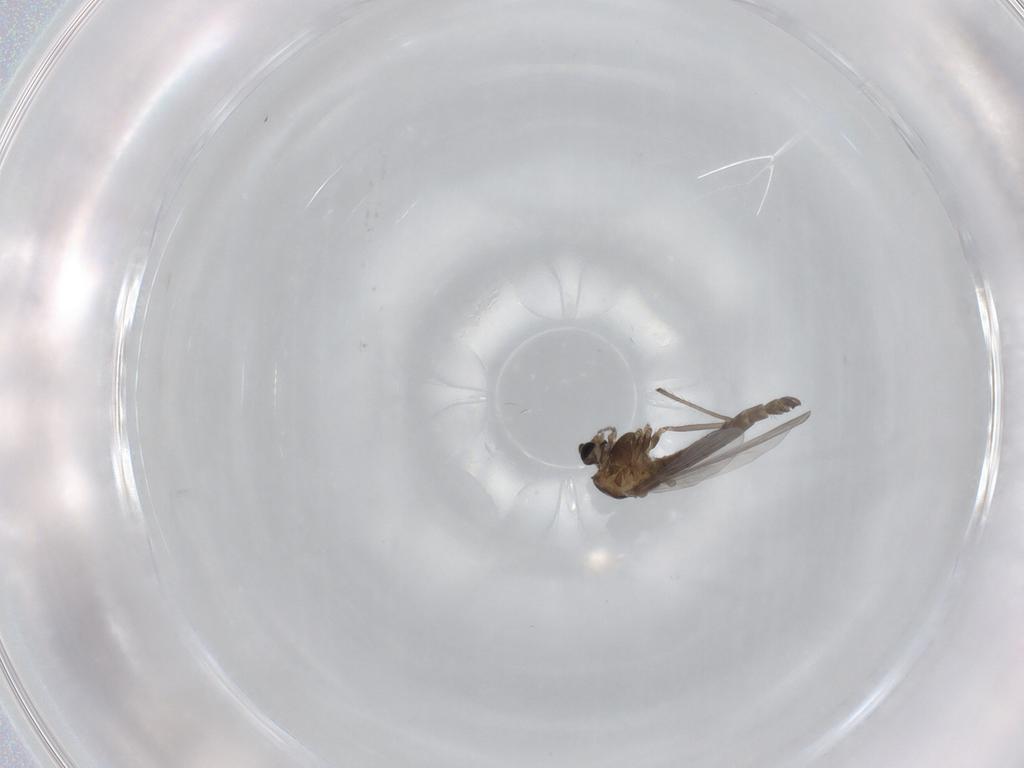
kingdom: Animalia
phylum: Arthropoda
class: Insecta
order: Diptera
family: Chironomidae
